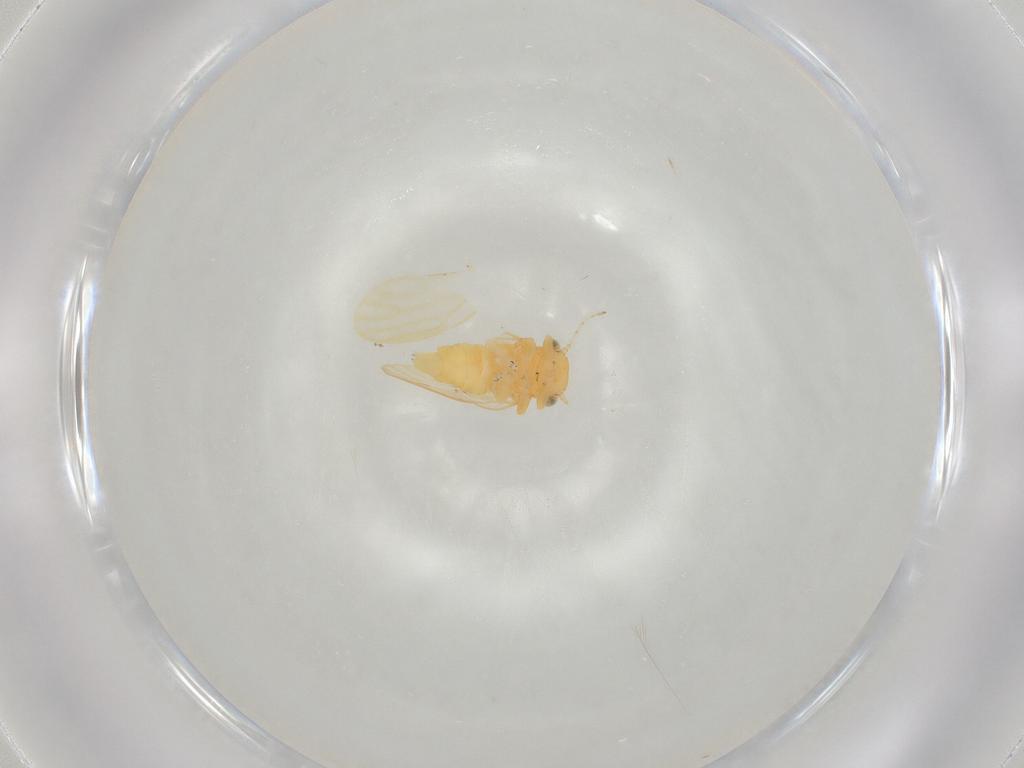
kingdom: Animalia
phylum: Arthropoda
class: Insecta
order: Hemiptera
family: Liviidae
